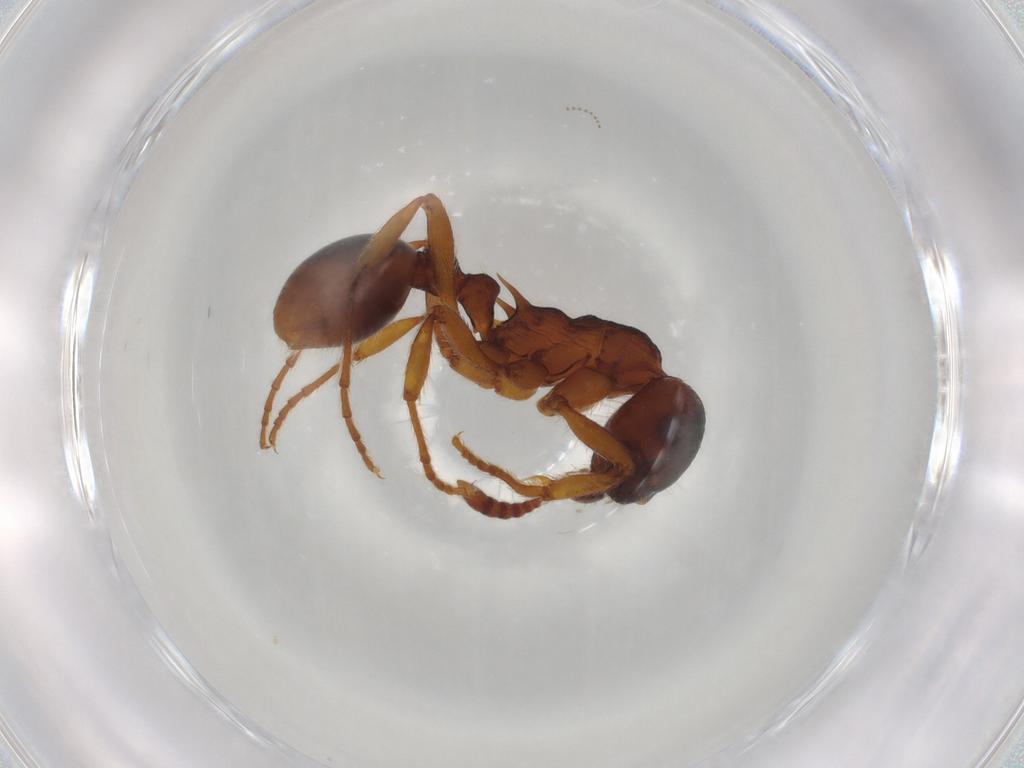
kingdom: Animalia
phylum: Arthropoda
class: Insecta
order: Hymenoptera
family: Formicidae
